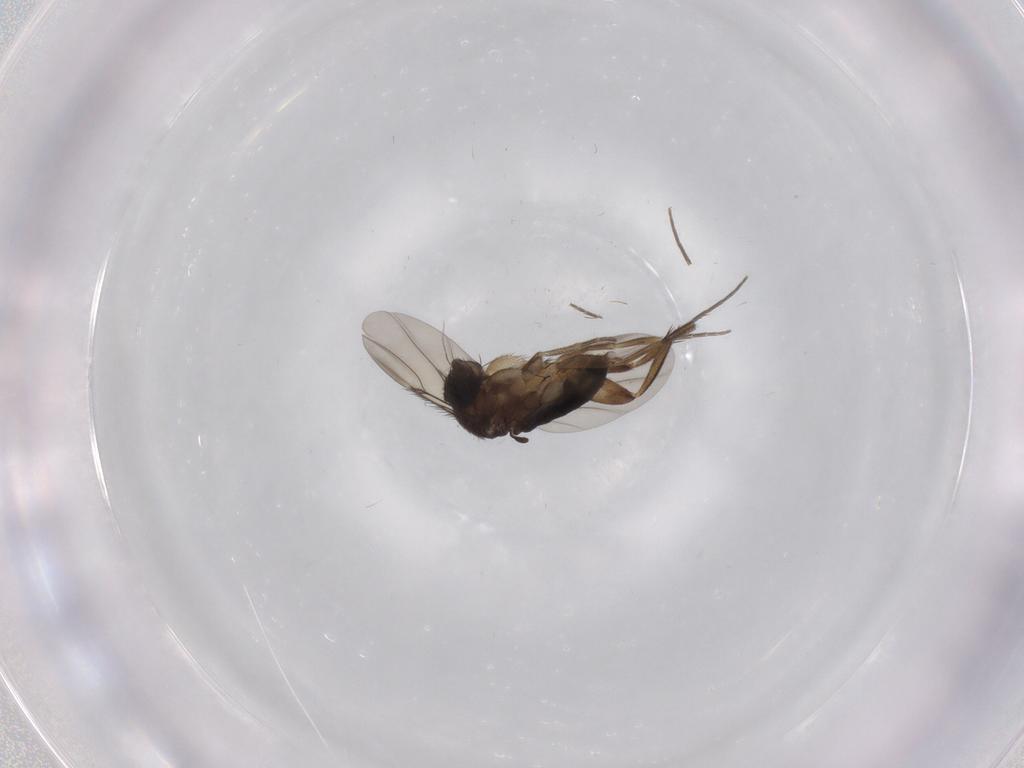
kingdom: Animalia
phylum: Arthropoda
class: Insecta
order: Diptera
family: Phoridae
